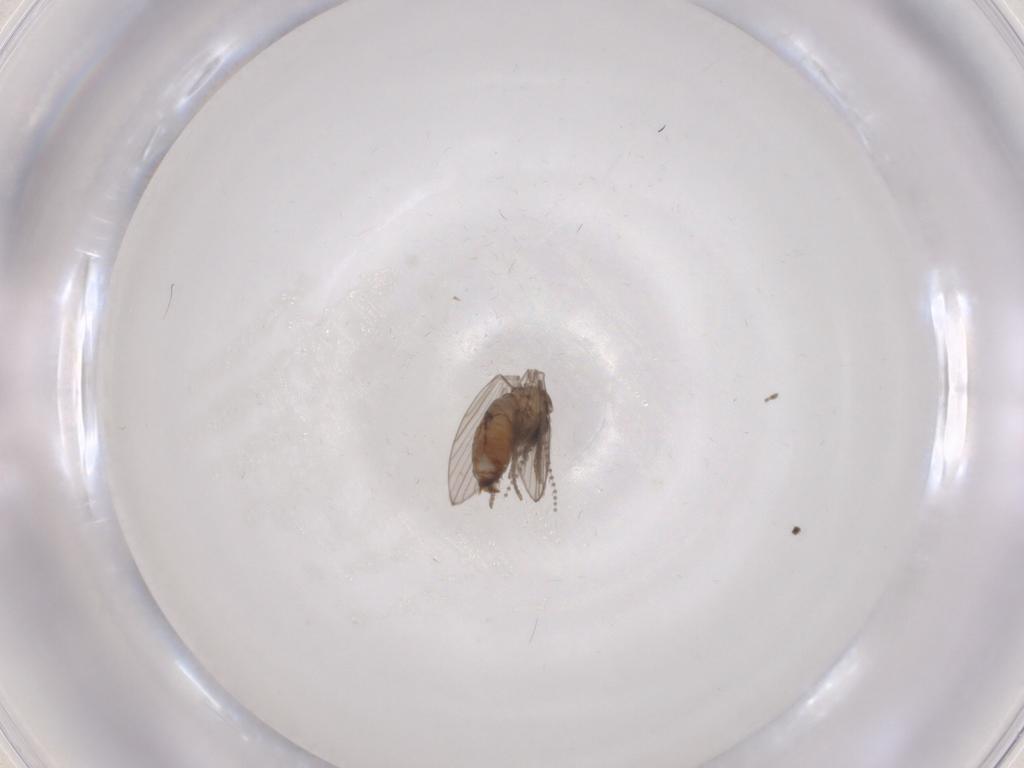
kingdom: Animalia
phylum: Arthropoda
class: Insecta
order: Diptera
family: Psychodidae
